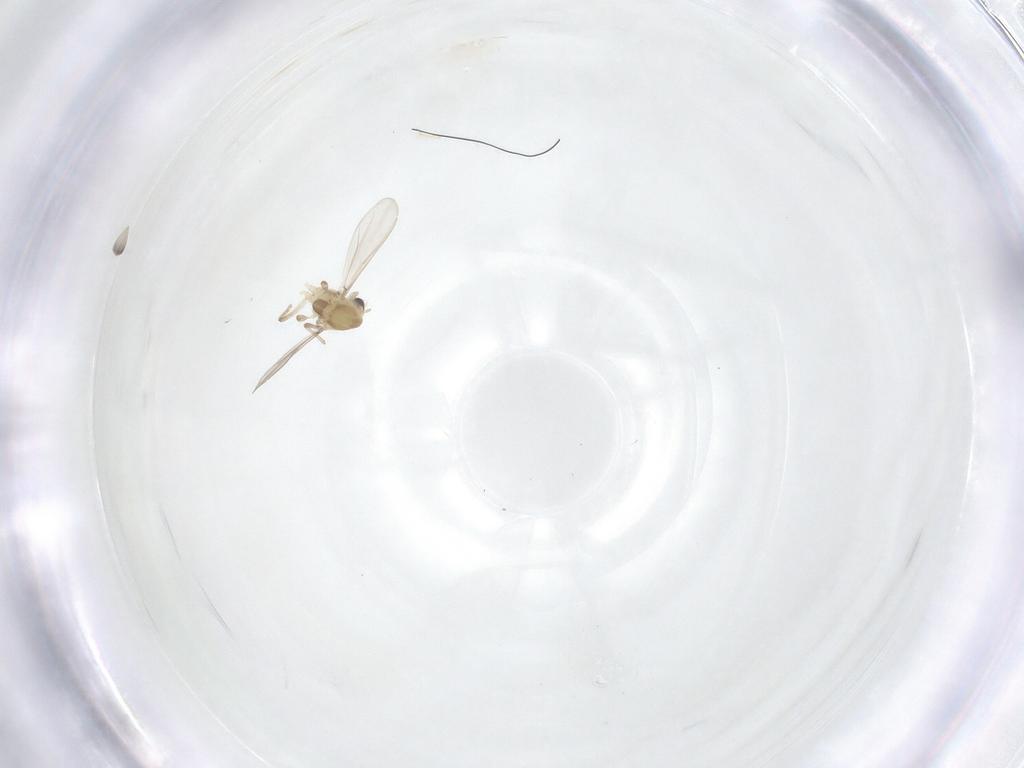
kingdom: Animalia
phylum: Arthropoda
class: Insecta
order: Diptera
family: Chironomidae
